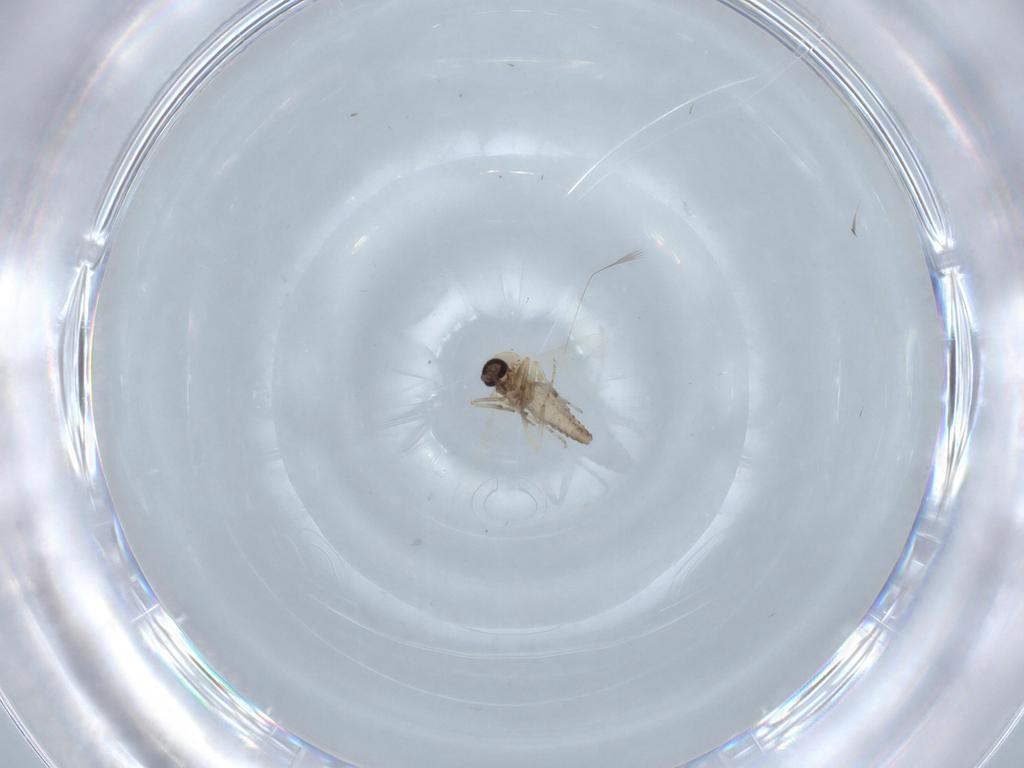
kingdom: Animalia
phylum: Arthropoda
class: Insecta
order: Diptera
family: Ceratopogonidae
